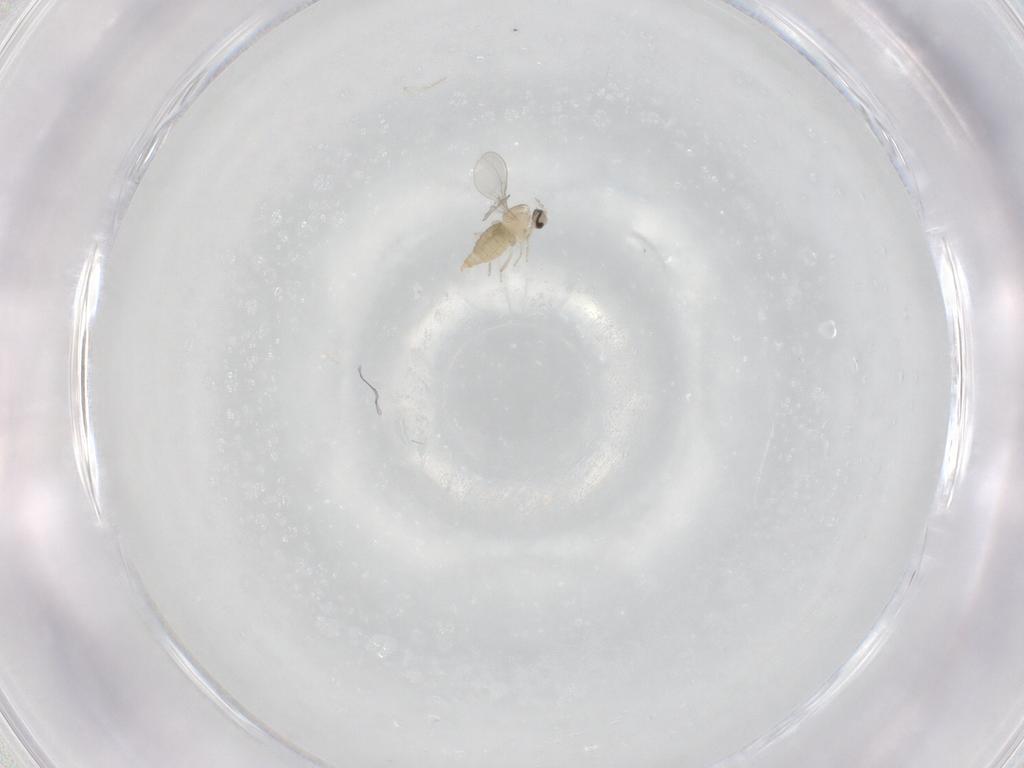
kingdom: Animalia
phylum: Arthropoda
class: Insecta
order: Diptera
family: Cecidomyiidae
